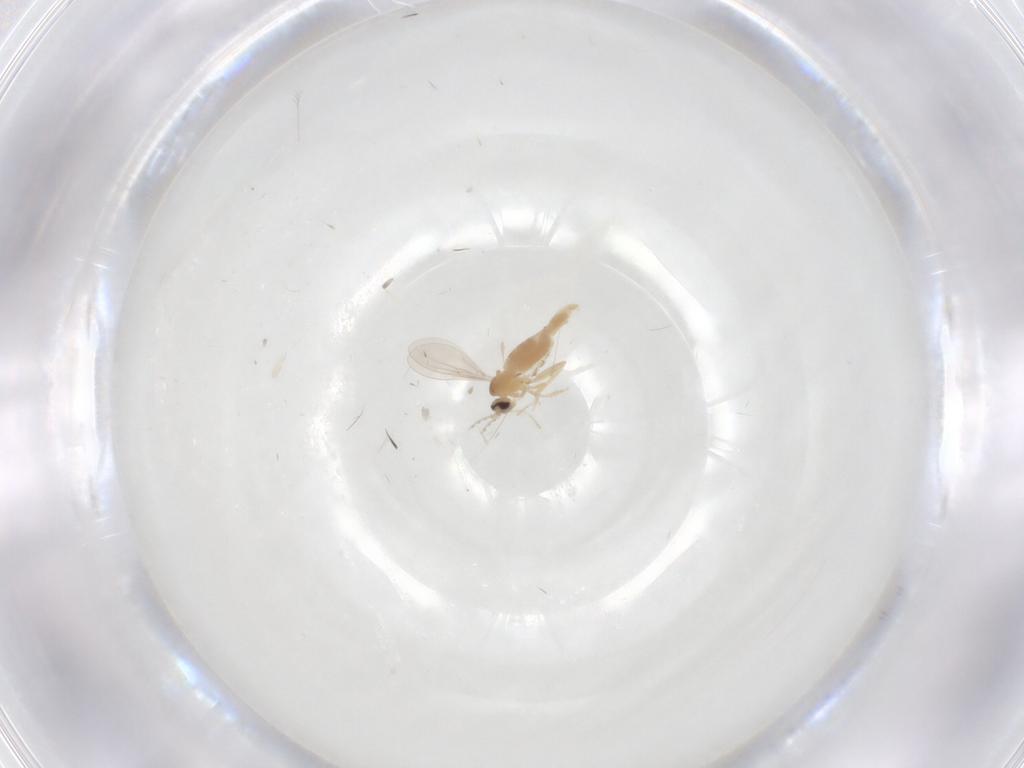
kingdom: Animalia
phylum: Arthropoda
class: Insecta
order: Diptera
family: Cecidomyiidae
